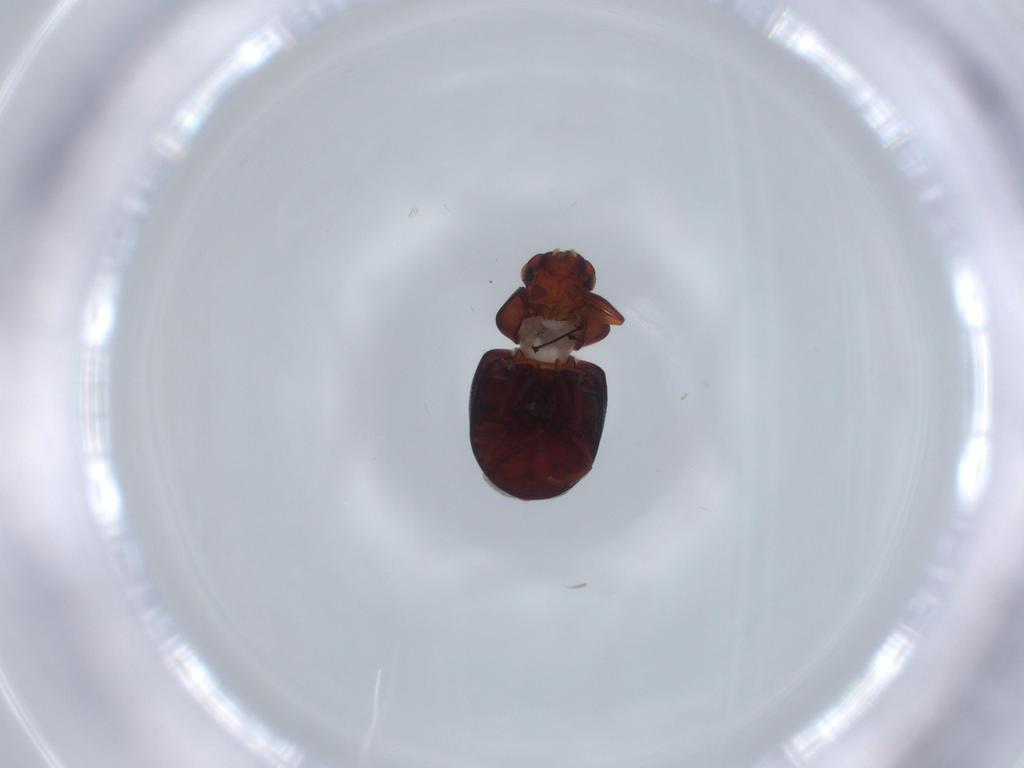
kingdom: Animalia
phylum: Arthropoda
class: Insecta
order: Coleoptera
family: Ptinidae
